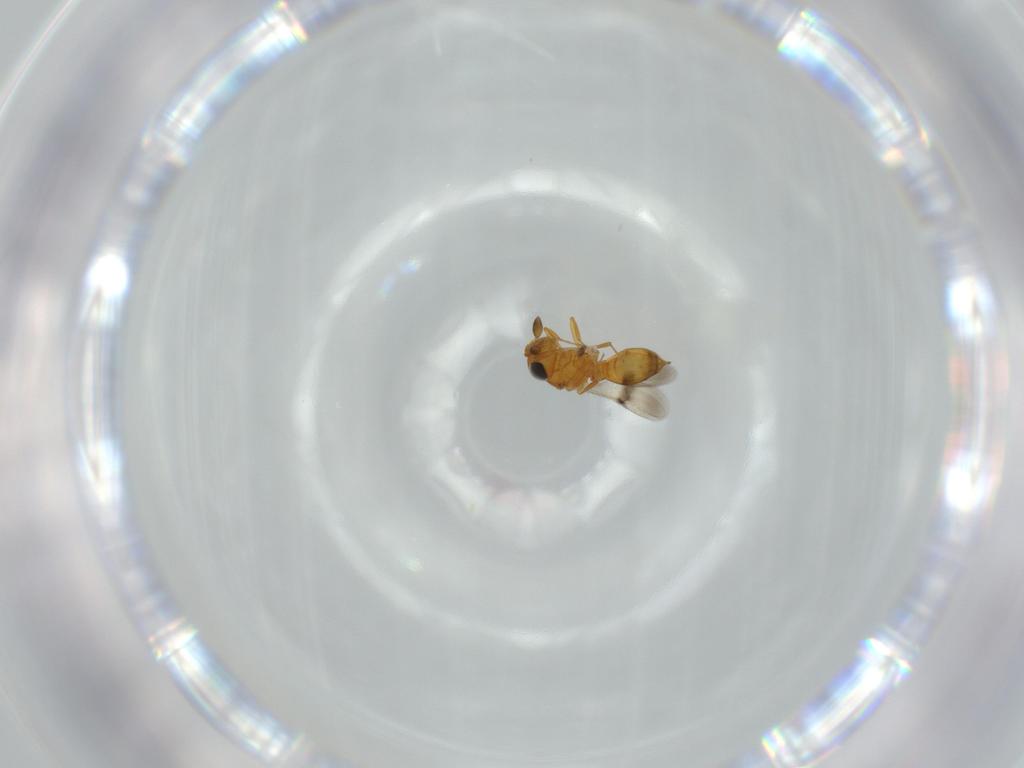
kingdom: Animalia
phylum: Arthropoda
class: Insecta
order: Hymenoptera
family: Scelionidae
